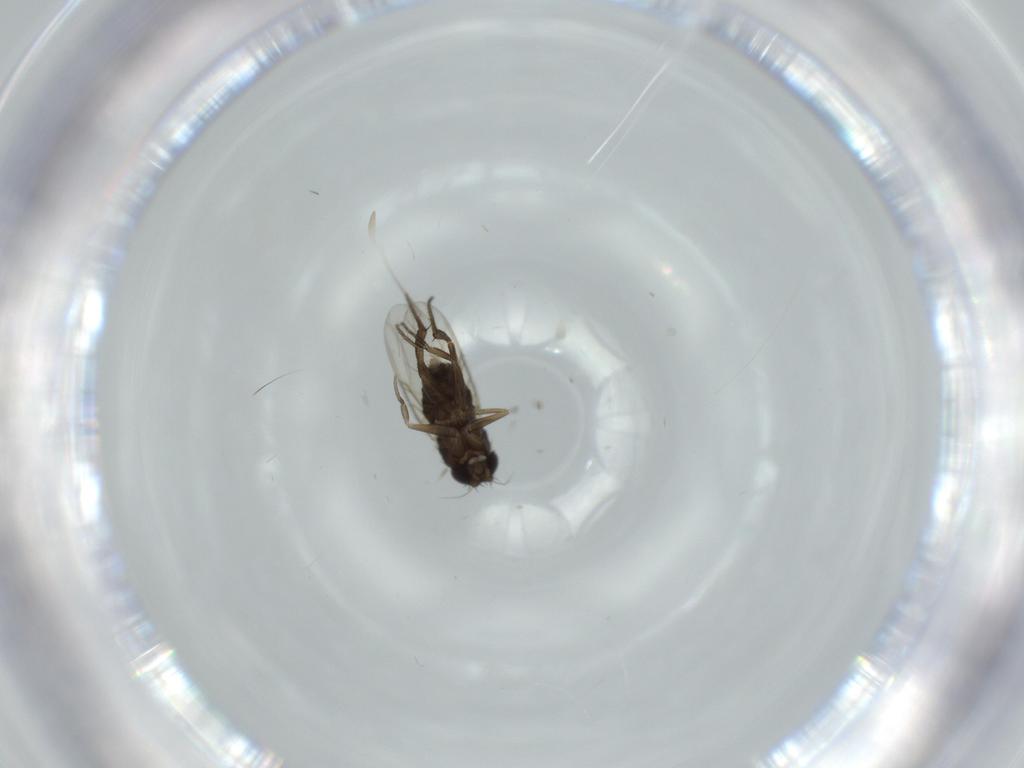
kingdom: Animalia
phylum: Arthropoda
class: Insecta
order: Diptera
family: Phoridae
